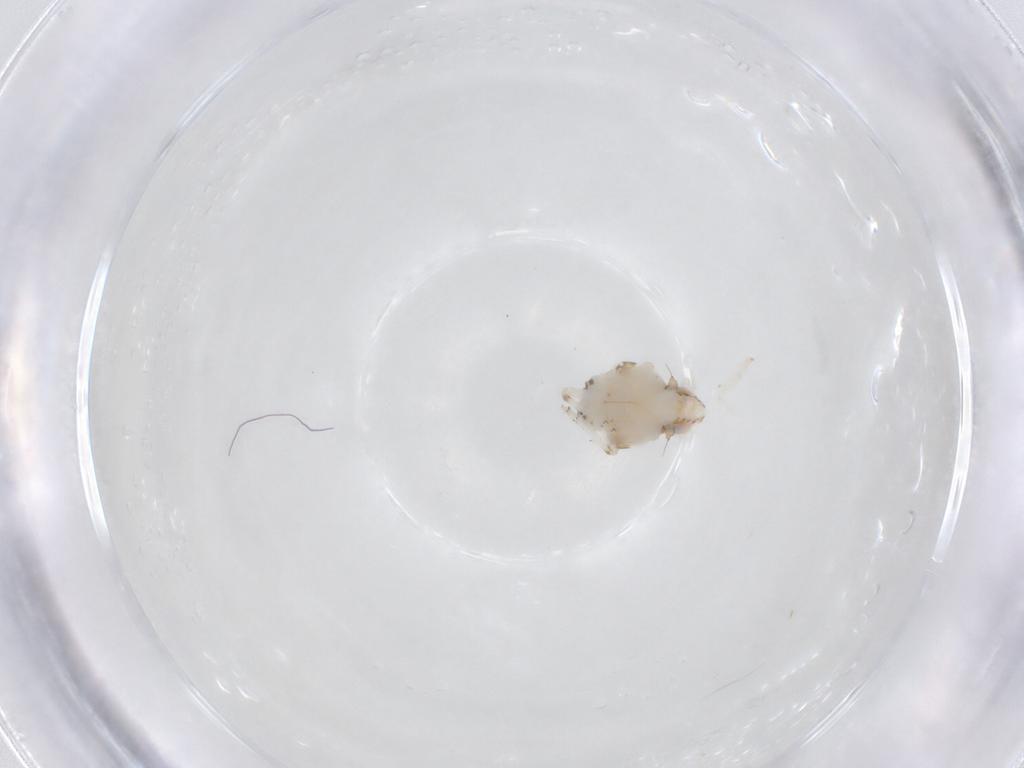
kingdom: Animalia
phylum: Arthropoda
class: Insecta
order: Hemiptera
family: Nogodinidae
